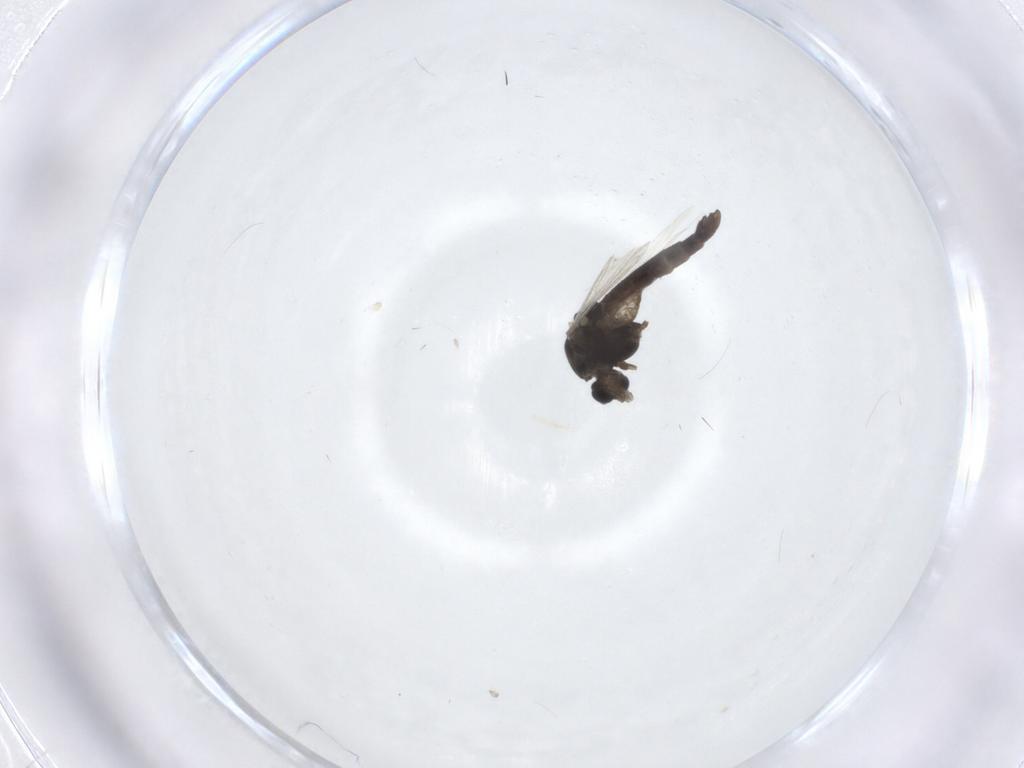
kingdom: Animalia
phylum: Arthropoda
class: Insecta
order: Diptera
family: Chironomidae
